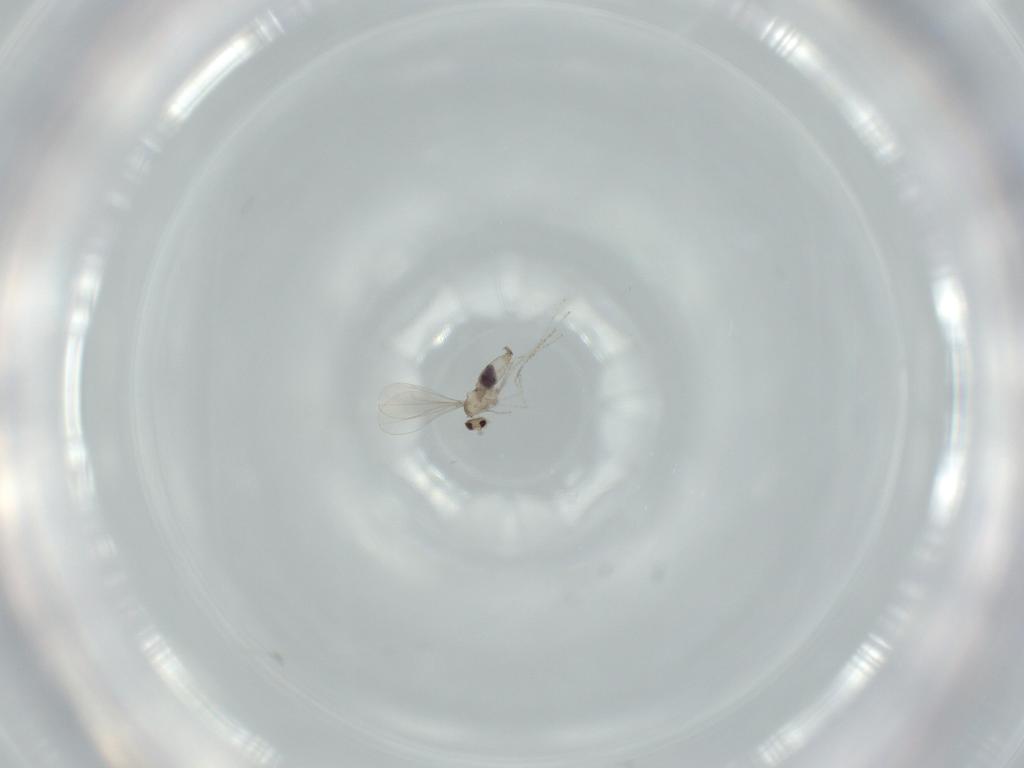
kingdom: Animalia
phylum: Arthropoda
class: Insecta
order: Diptera
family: Cecidomyiidae
